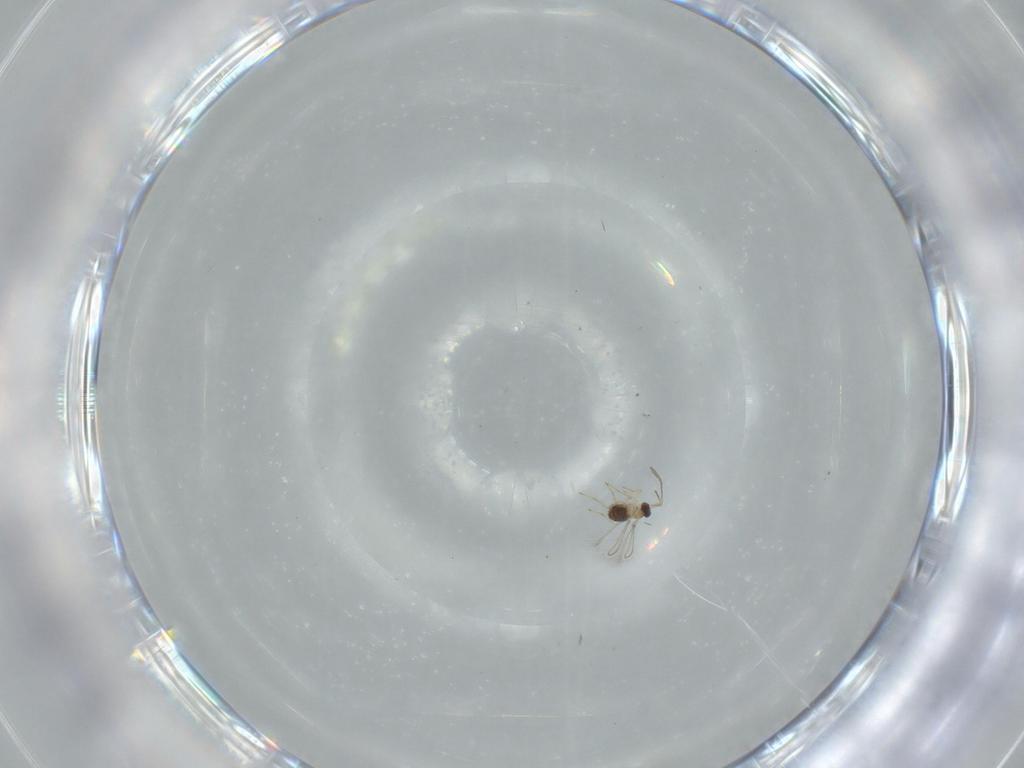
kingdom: Animalia
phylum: Arthropoda
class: Insecta
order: Hymenoptera
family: Mymaridae
